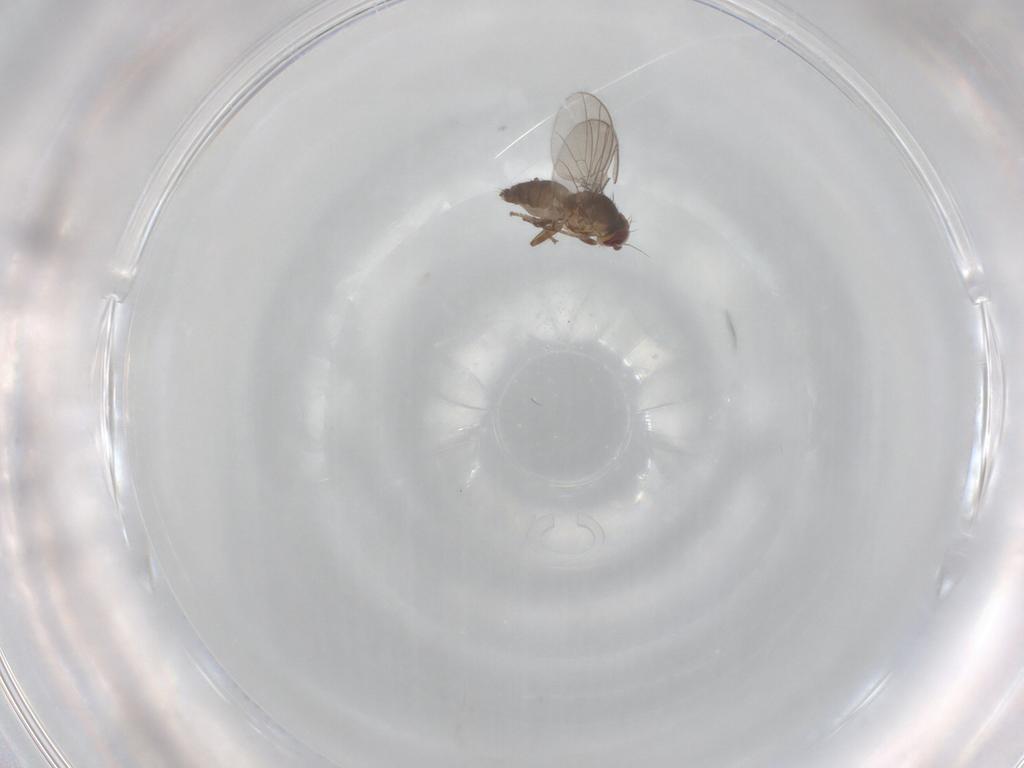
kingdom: Animalia
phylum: Arthropoda
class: Insecta
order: Diptera
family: Agromyzidae
